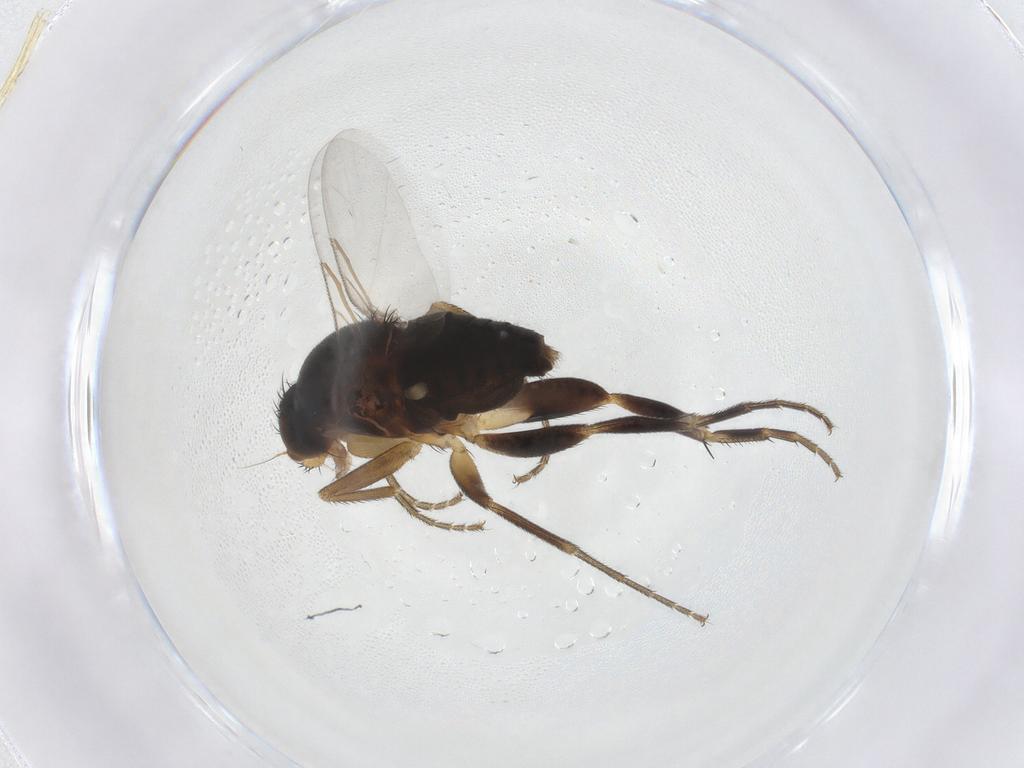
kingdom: Animalia
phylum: Arthropoda
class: Insecta
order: Diptera
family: Phoridae
